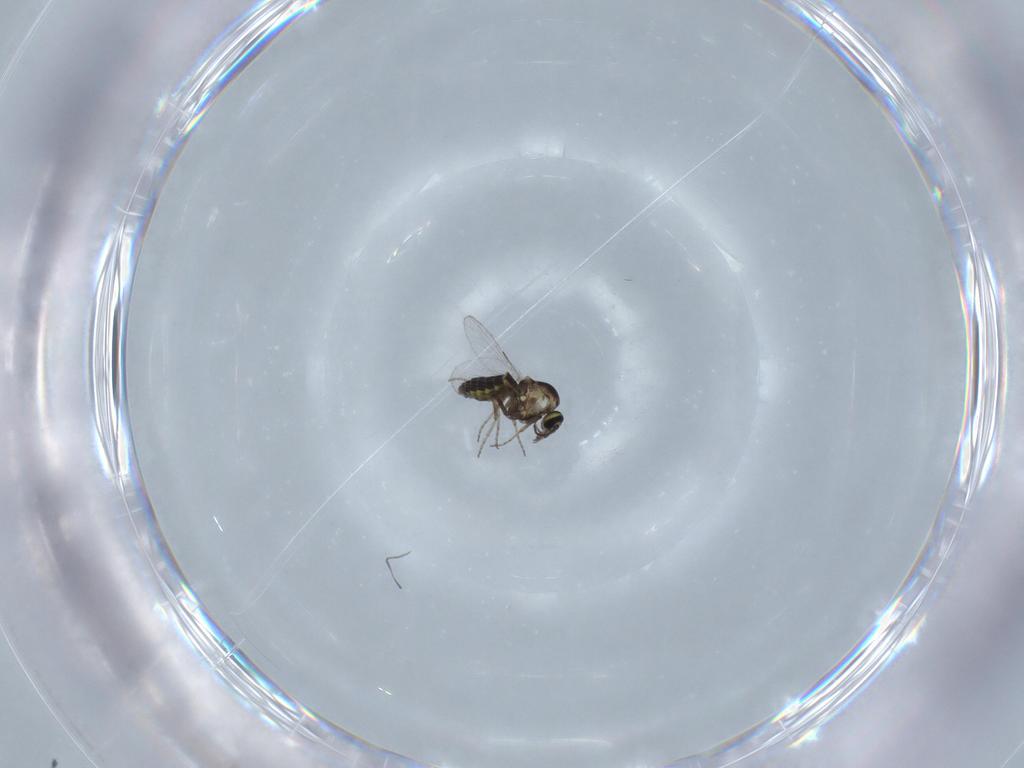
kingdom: Animalia
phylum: Arthropoda
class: Insecta
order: Diptera
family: Ceratopogonidae
